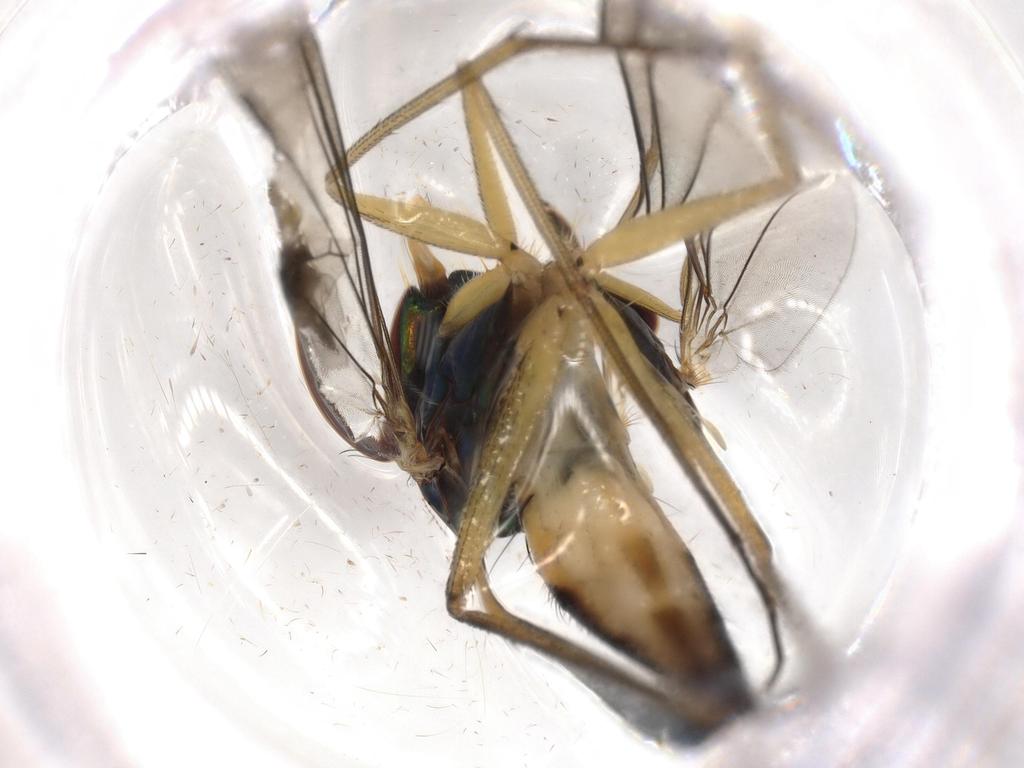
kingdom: Animalia
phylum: Arthropoda
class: Insecta
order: Diptera
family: Dolichopodidae
